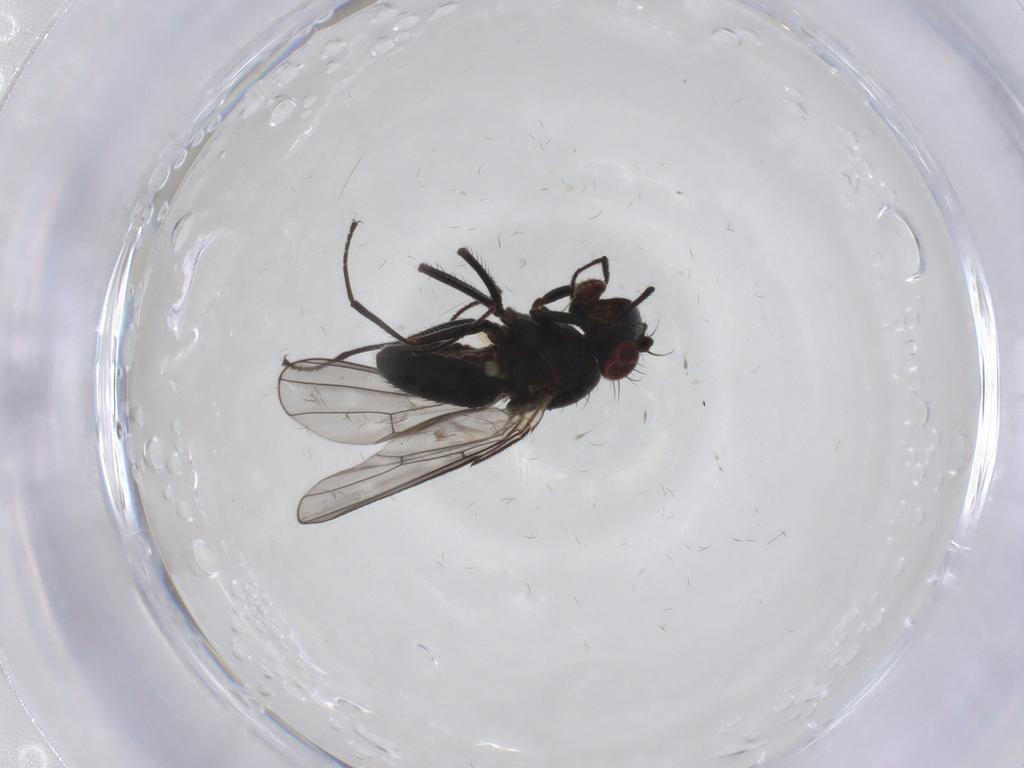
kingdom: Animalia
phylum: Arthropoda
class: Insecta
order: Diptera
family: Ephydridae
